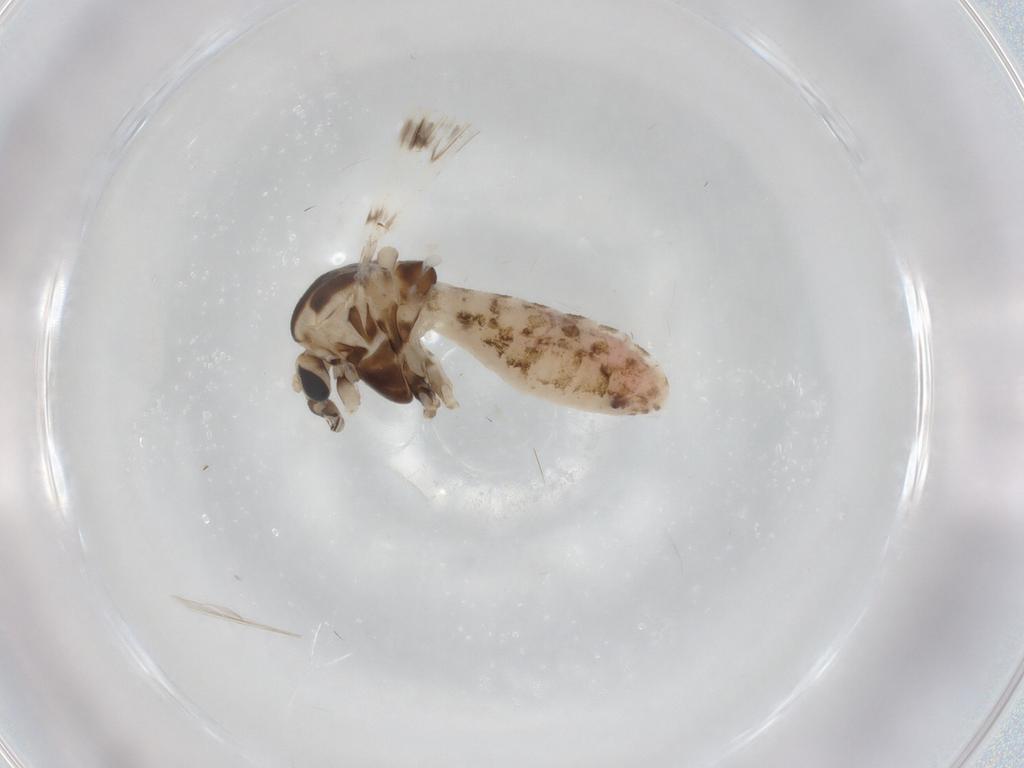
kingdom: Animalia
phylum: Arthropoda
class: Insecta
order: Diptera
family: Chironomidae
